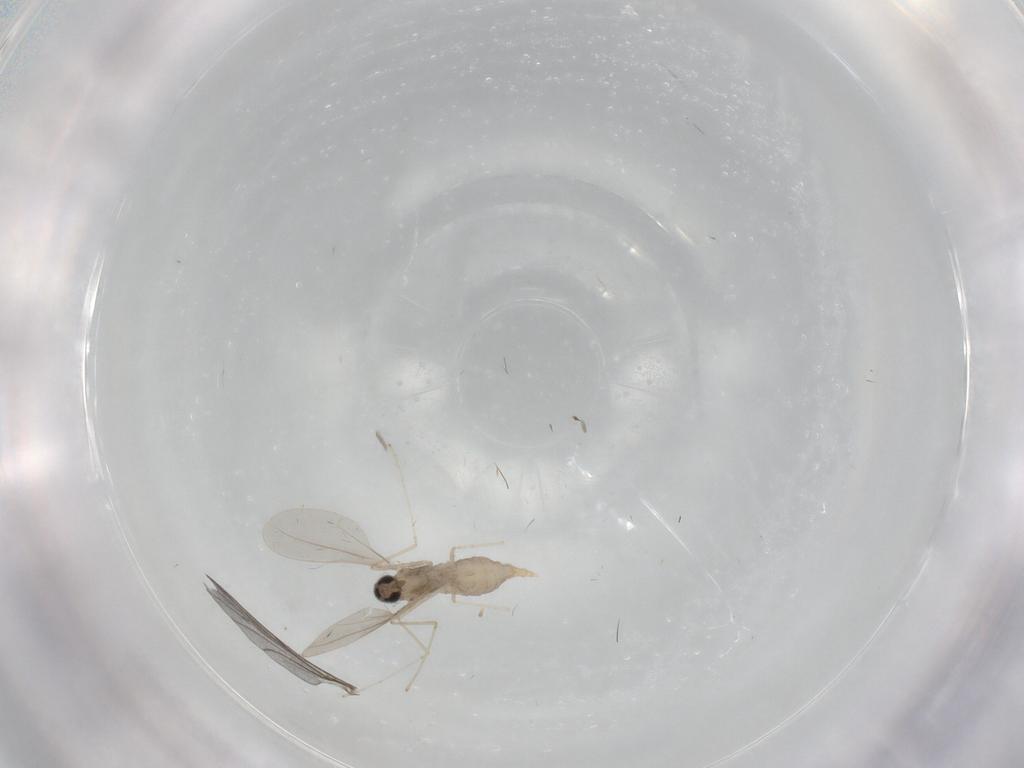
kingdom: Animalia
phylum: Arthropoda
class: Insecta
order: Diptera
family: Cecidomyiidae
